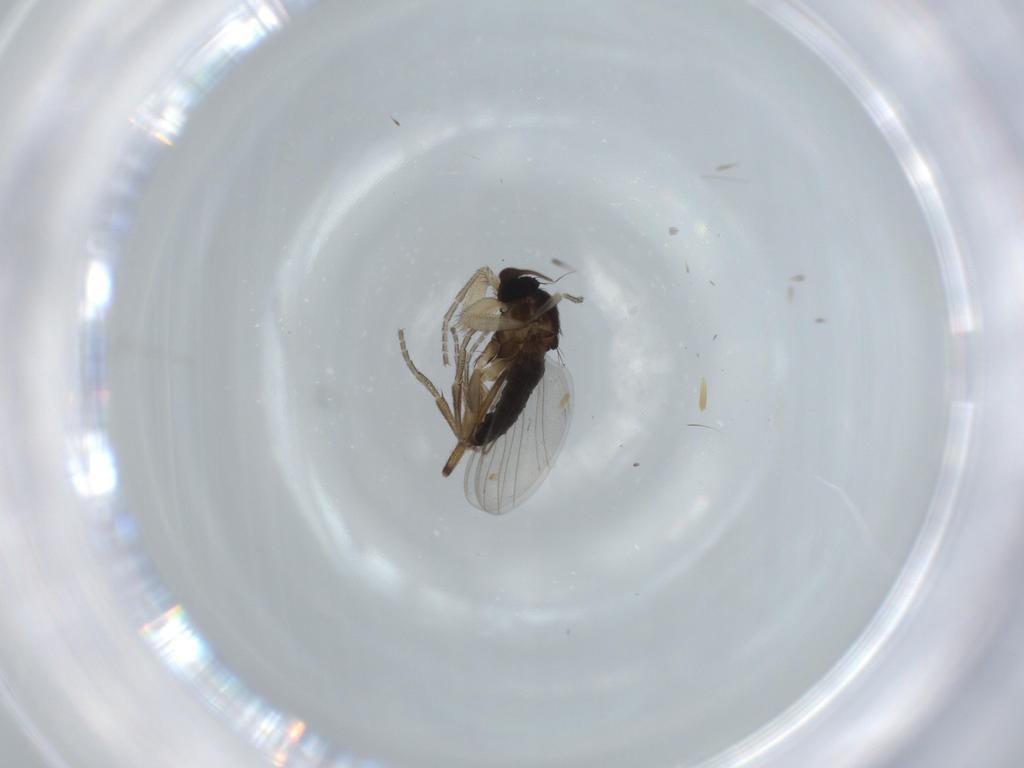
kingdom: Animalia
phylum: Arthropoda
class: Insecta
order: Diptera
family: Phoridae
